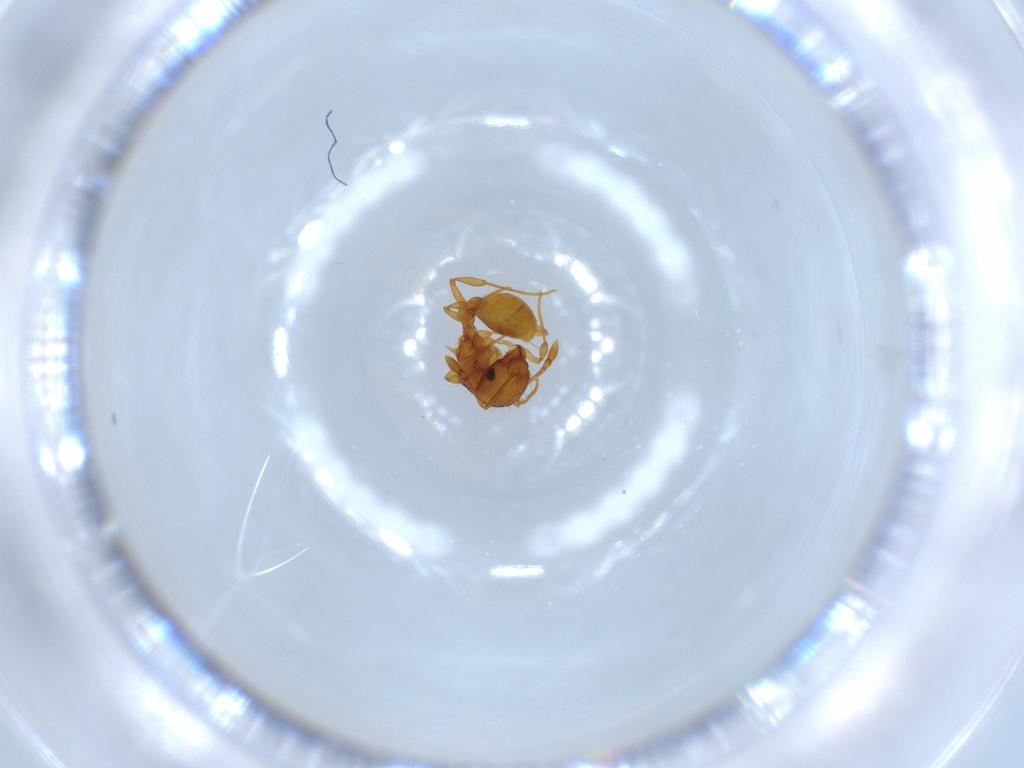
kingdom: Animalia
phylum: Arthropoda
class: Insecta
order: Hymenoptera
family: Formicidae
